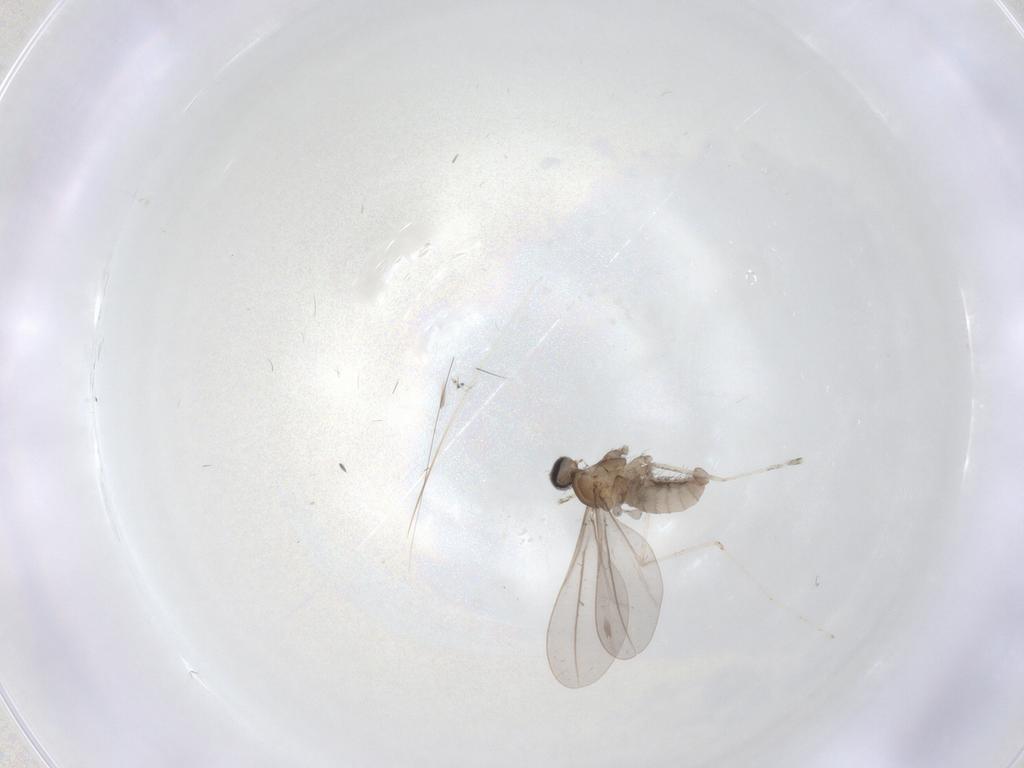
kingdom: Animalia
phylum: Arthropoda
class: Insecta
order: Diptera
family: Cecidomyiidae
